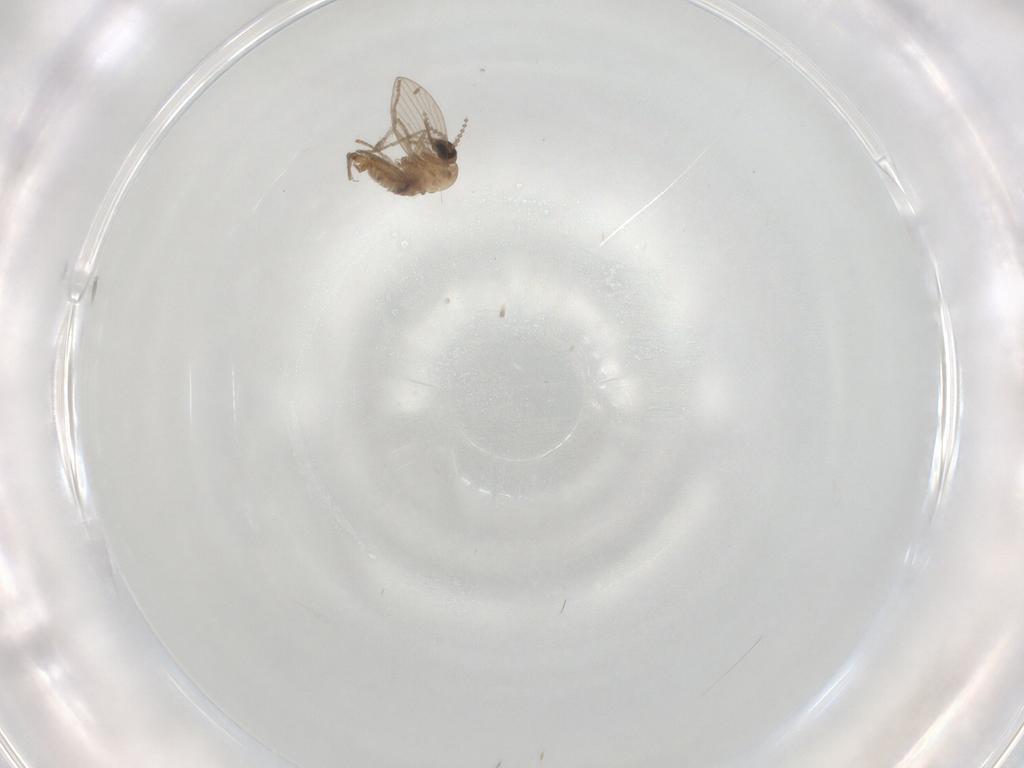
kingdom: Animalia
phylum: Arthropoda
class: Insecta
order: Diptera
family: Psychodidae
